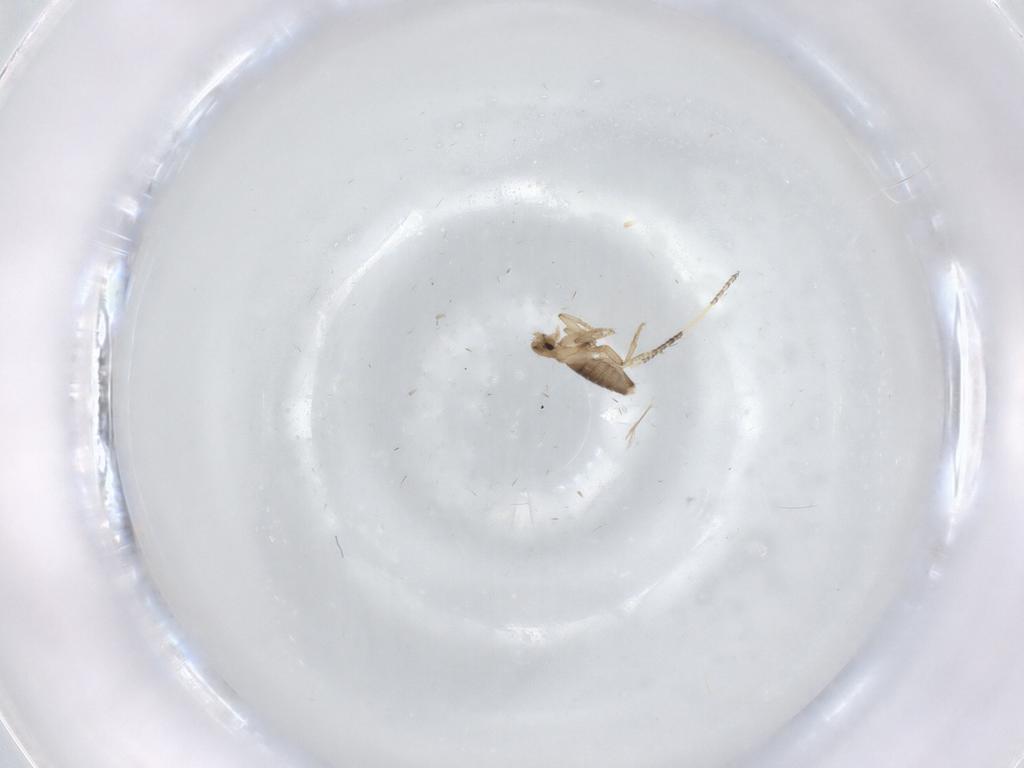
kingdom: Animalia
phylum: Arthropoda
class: Insecta
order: Diptera
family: Phoridae
